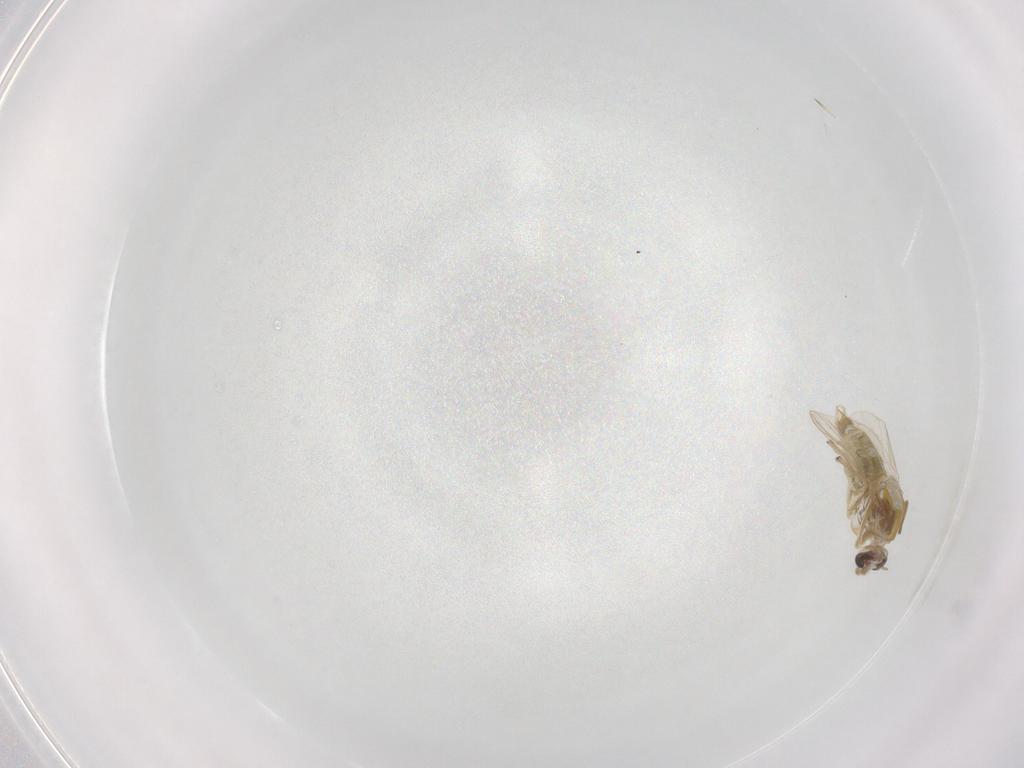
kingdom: Animalia
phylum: Arthropoda
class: Insecta
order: Diptera
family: Chironomidae
